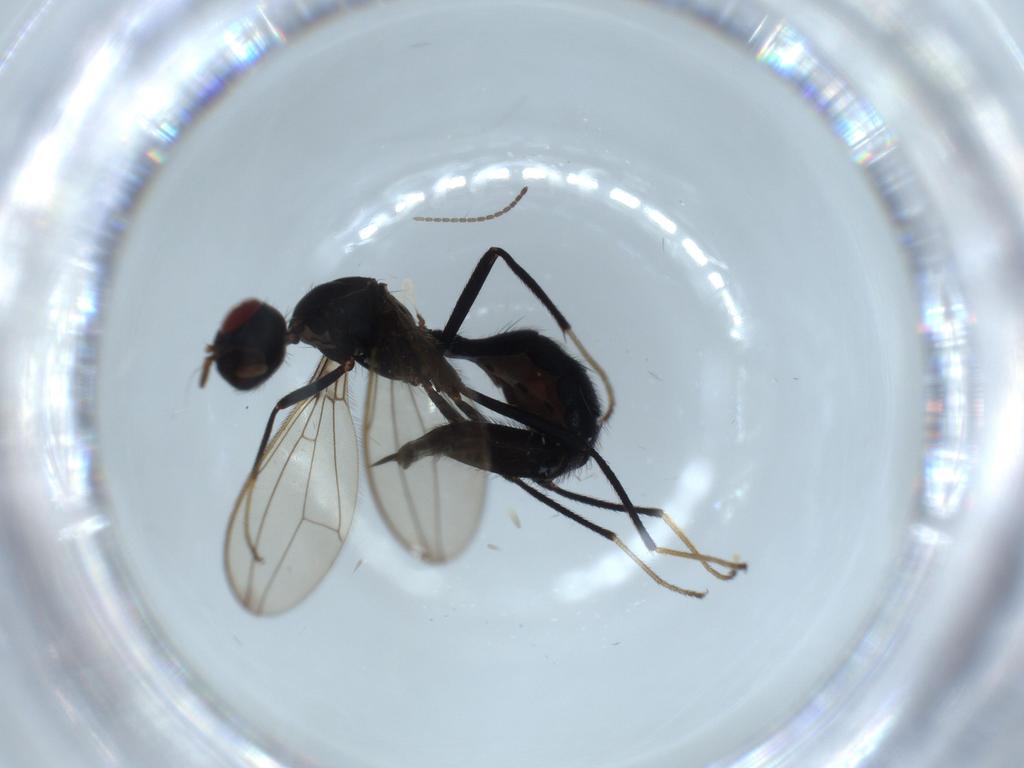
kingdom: Animalia
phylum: Arthropoda
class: Insecta
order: Diptera
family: Richardiidae
